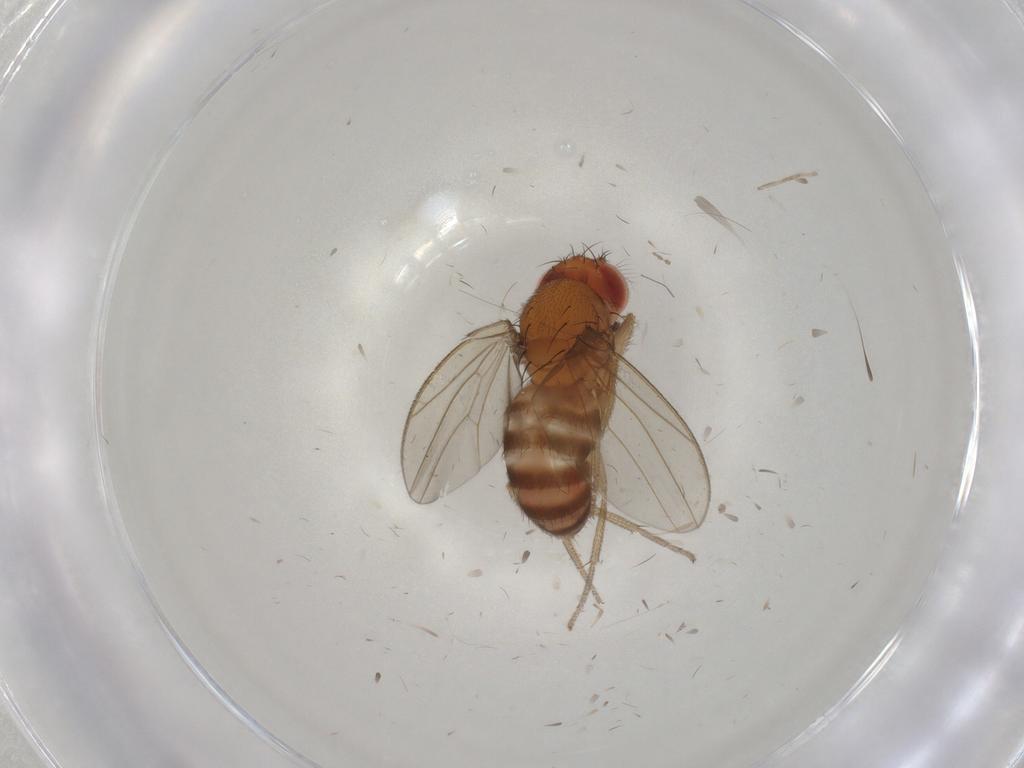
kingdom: Animalia
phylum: Arthropoda
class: Insecta
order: Diptera
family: Drosophilidae
